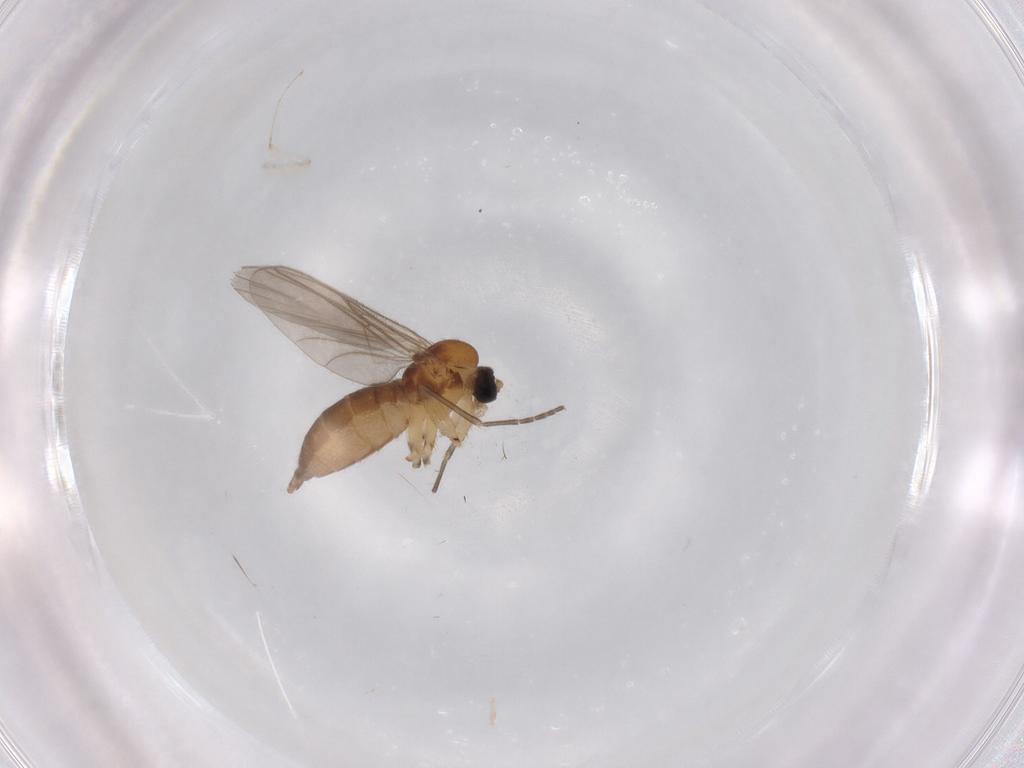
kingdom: Animalia
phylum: Arthropoda
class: Insecta
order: Diptera
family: Sciaridae
